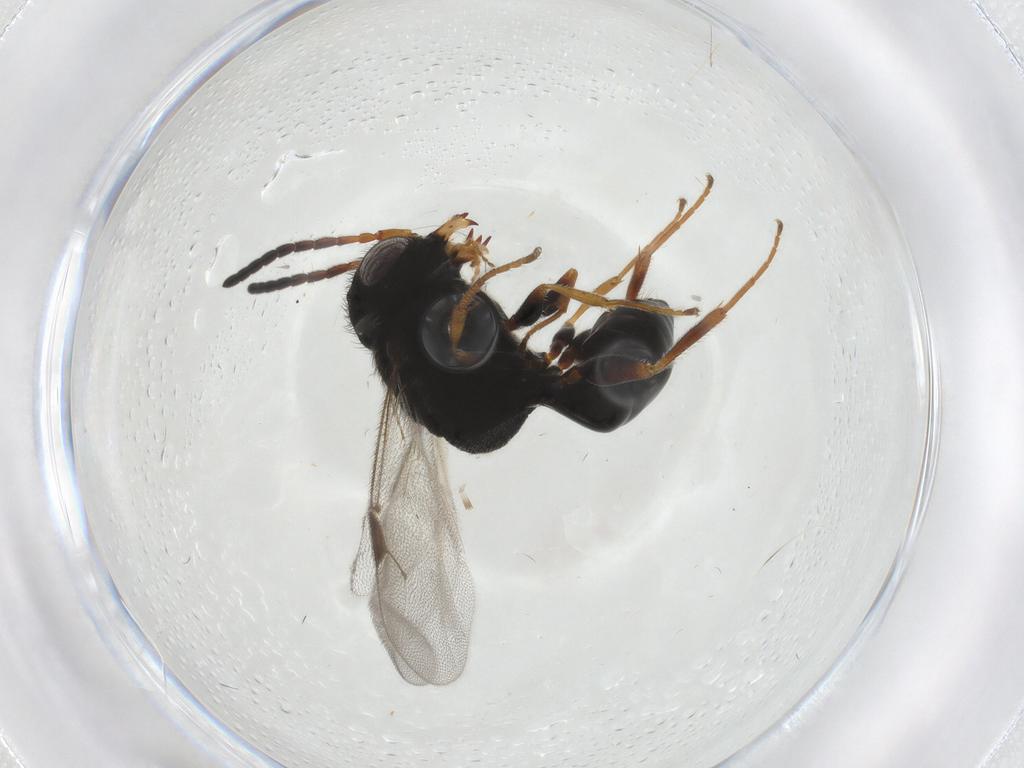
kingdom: Animalia
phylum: Arthropoda
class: Insecta
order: Hymenoptera
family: Dryinidae
